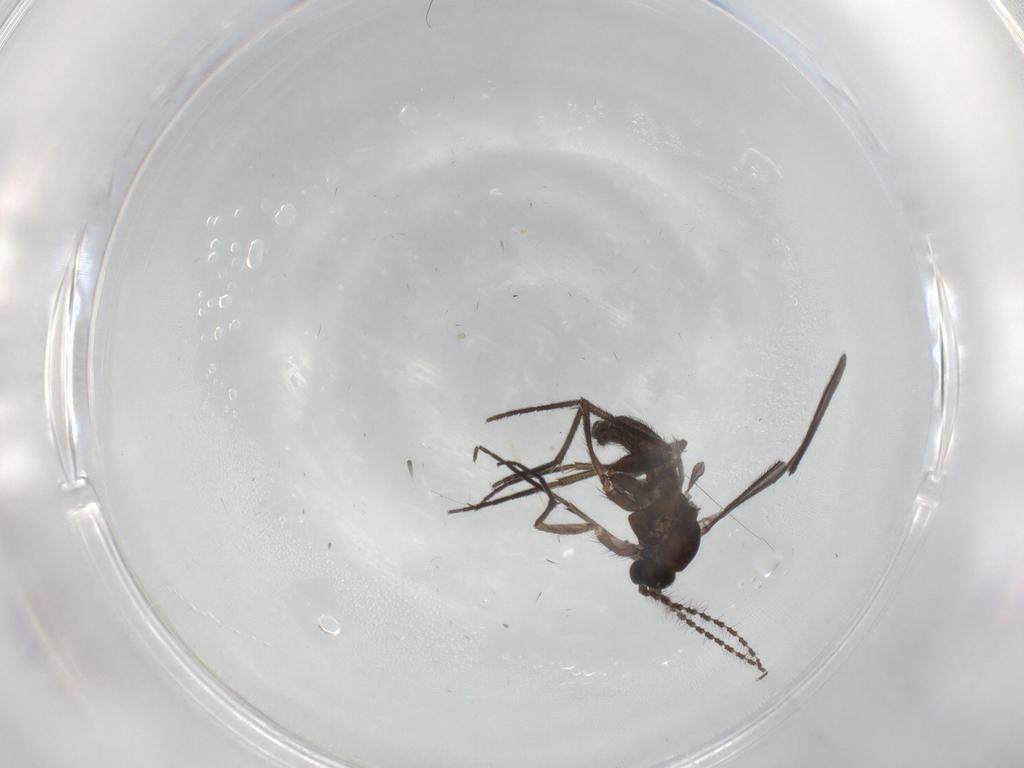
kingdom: Animalia
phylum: Arthropoda
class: Insecta
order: Diptera
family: Sciaridae
